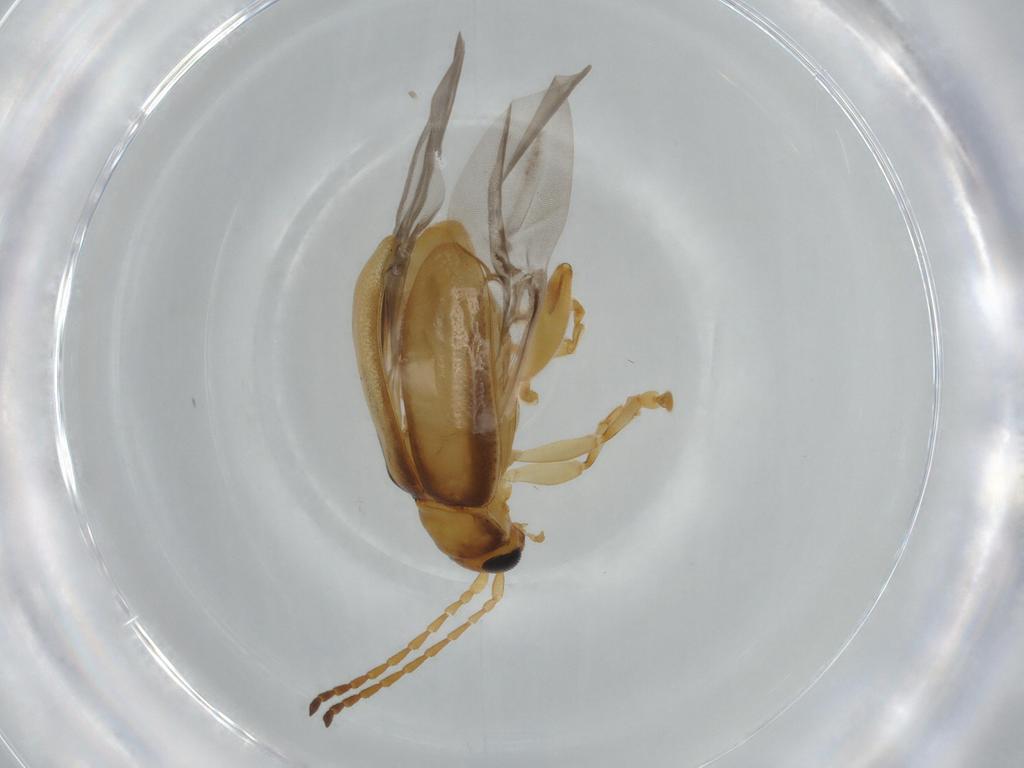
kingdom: Animalia
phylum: Arthropoda
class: Insecta
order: Coleoptera
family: Chrysomelidae
